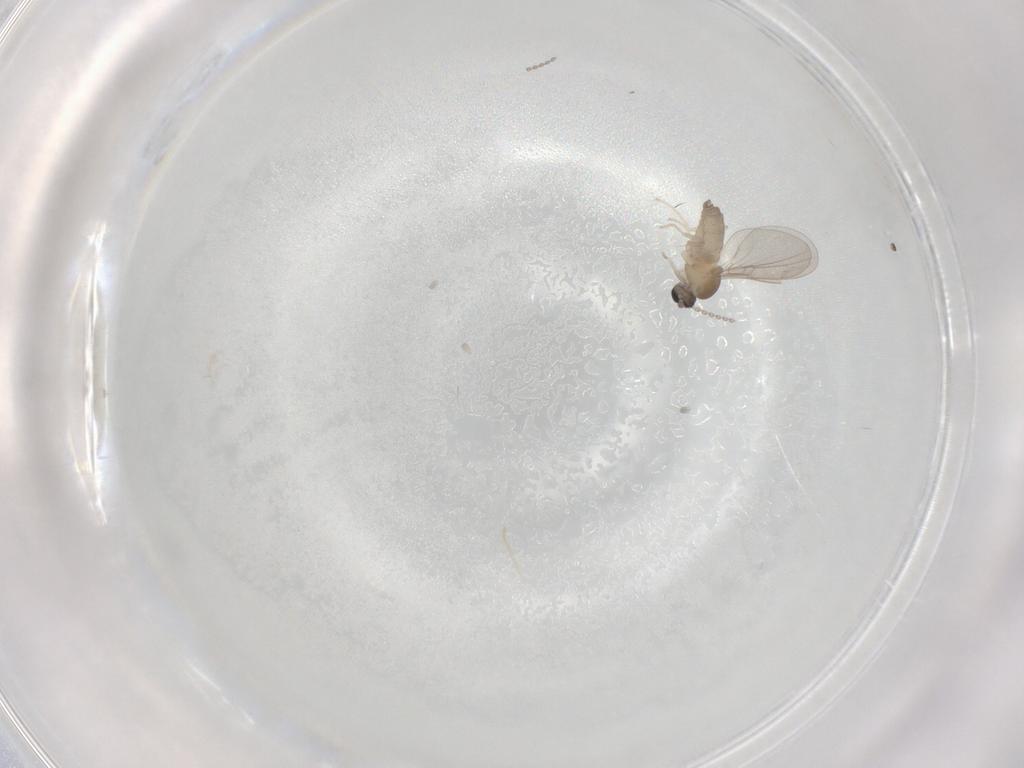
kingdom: Animalia
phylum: Arthropoda
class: Insecta
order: Diptera
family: Cecidomyiidae
